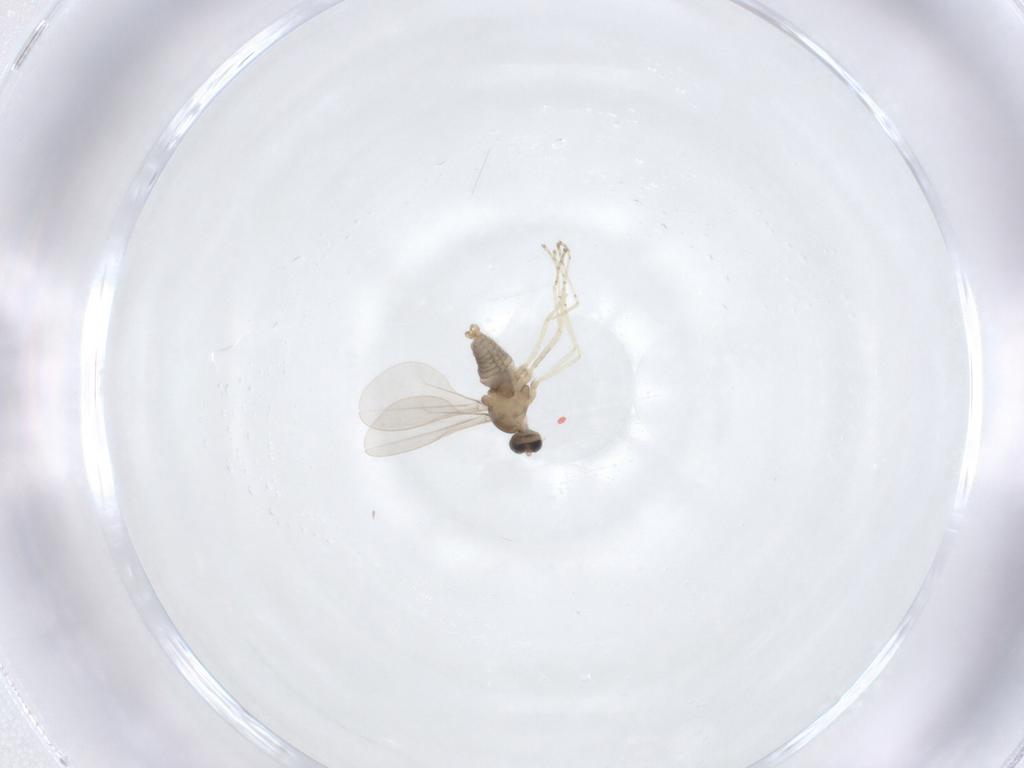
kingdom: Animalia
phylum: Arthropoda
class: Insecta
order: Diptera
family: Cecidomyiidae
